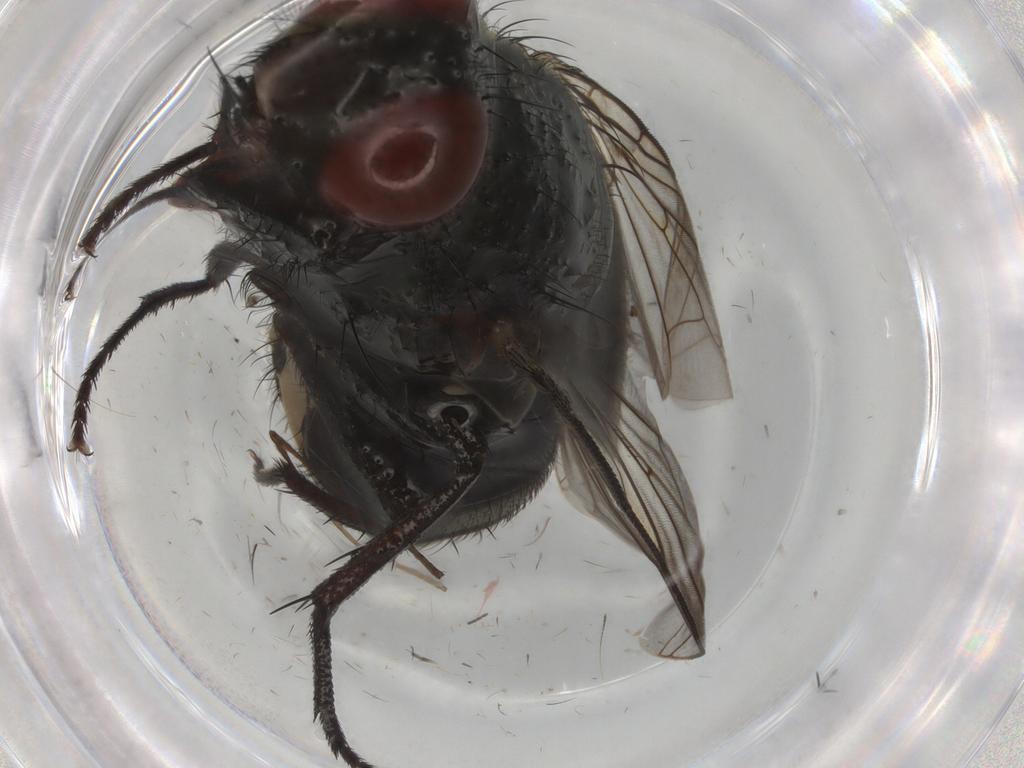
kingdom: Animalia
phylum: Arthropoda
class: Insecta
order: Diptera
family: Sarcophagidae
